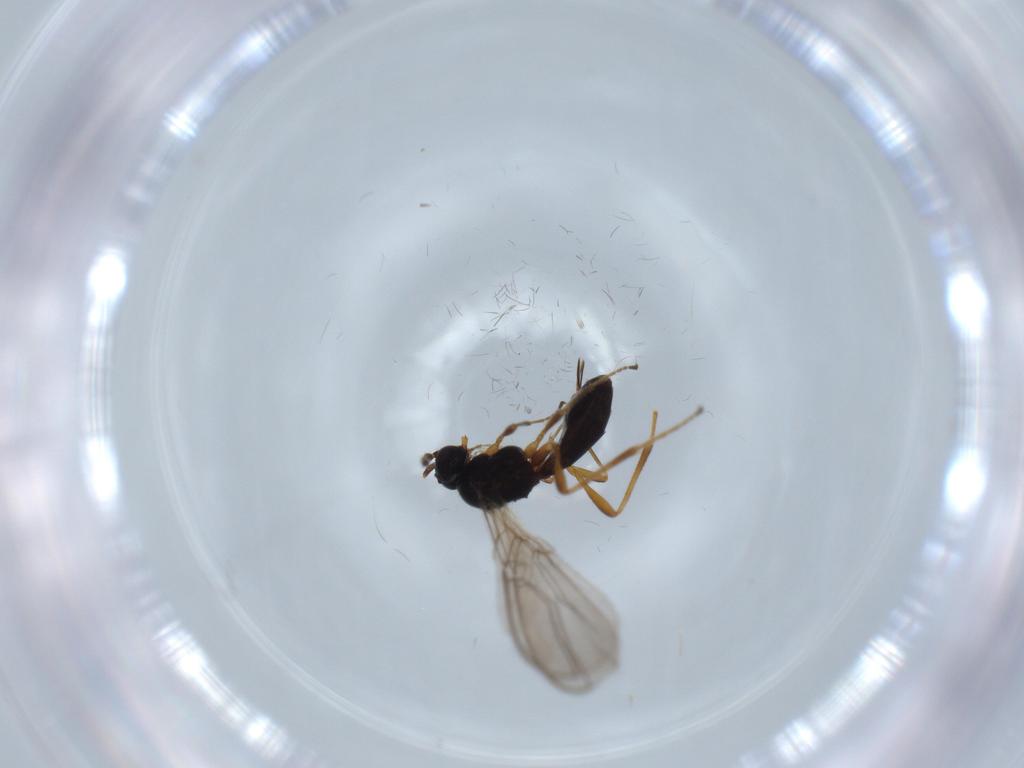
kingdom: Animalia
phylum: Arthropoda
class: Insecta
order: Hymenoptera
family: Braconidae
